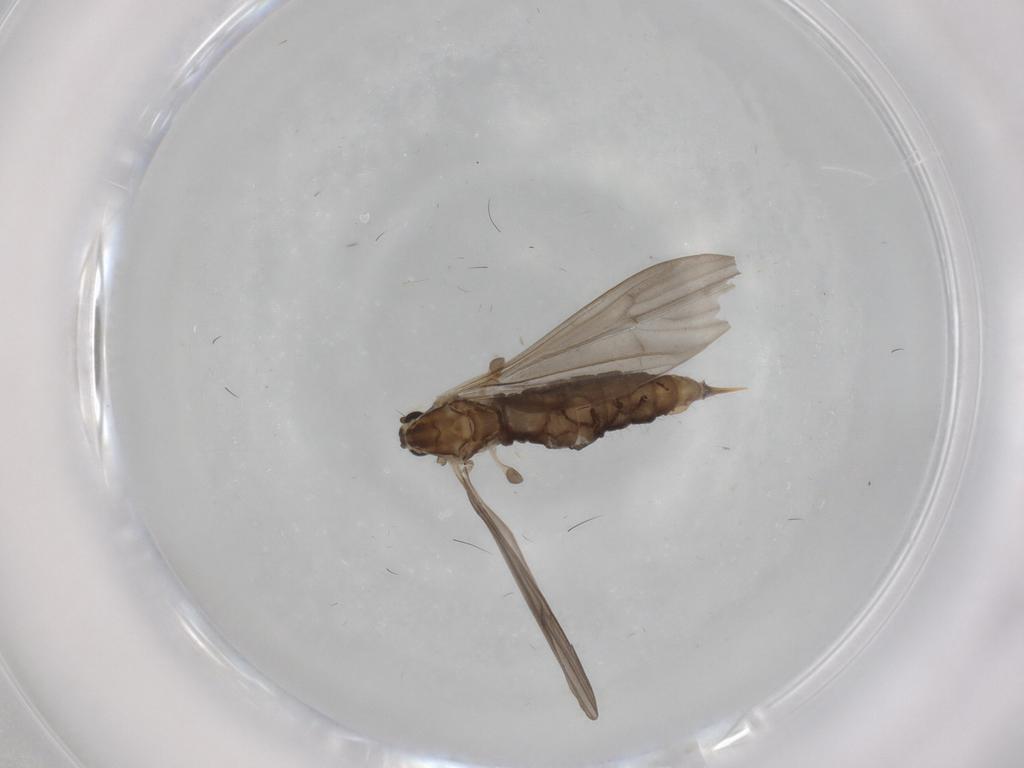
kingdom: Animalia
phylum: Arthropoda
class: Insecta
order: Diptera
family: Limoniidae
